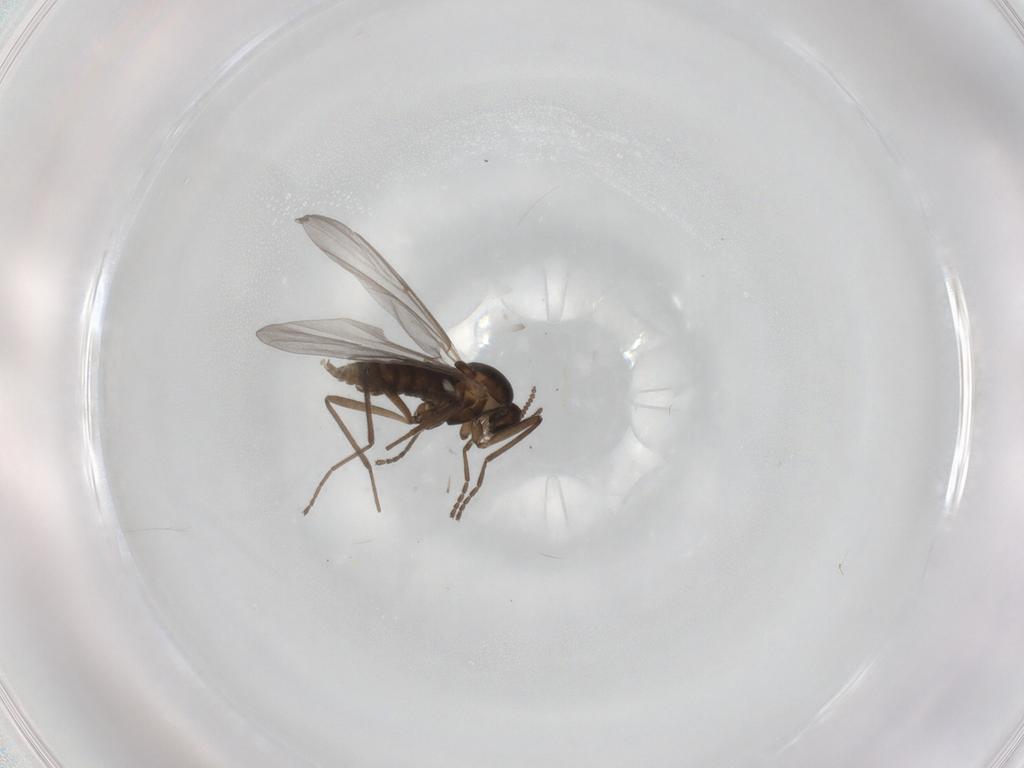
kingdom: Animalia
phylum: Arthropoda
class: Insecta
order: Diptera
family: Cecidomyiidae
